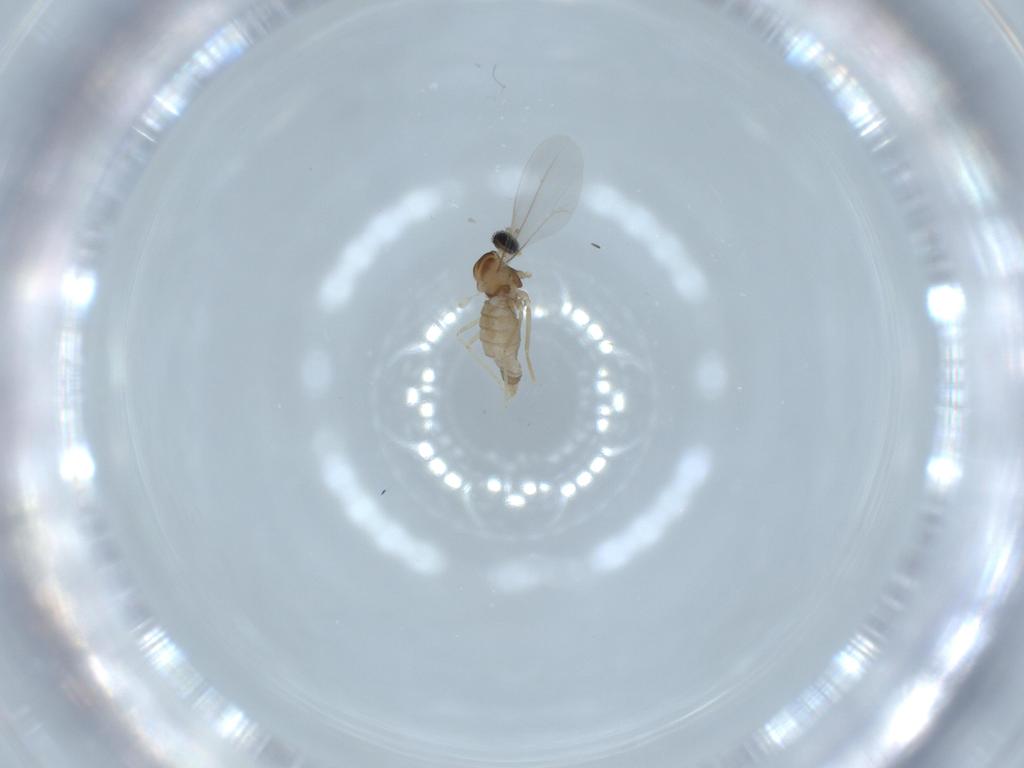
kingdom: Animalia
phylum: Arthropoda
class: Insecta
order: Diptera
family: Cecidomyiidae
